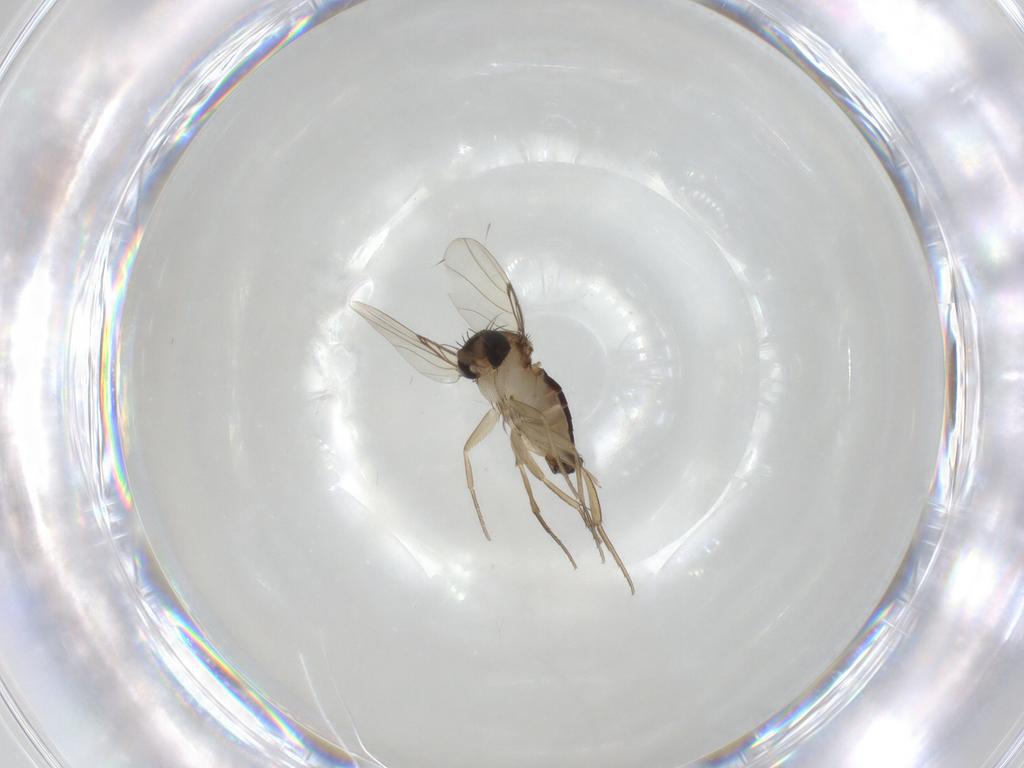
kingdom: Animalia
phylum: Arthropoda
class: Insecta
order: Diptera
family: Phoridae
